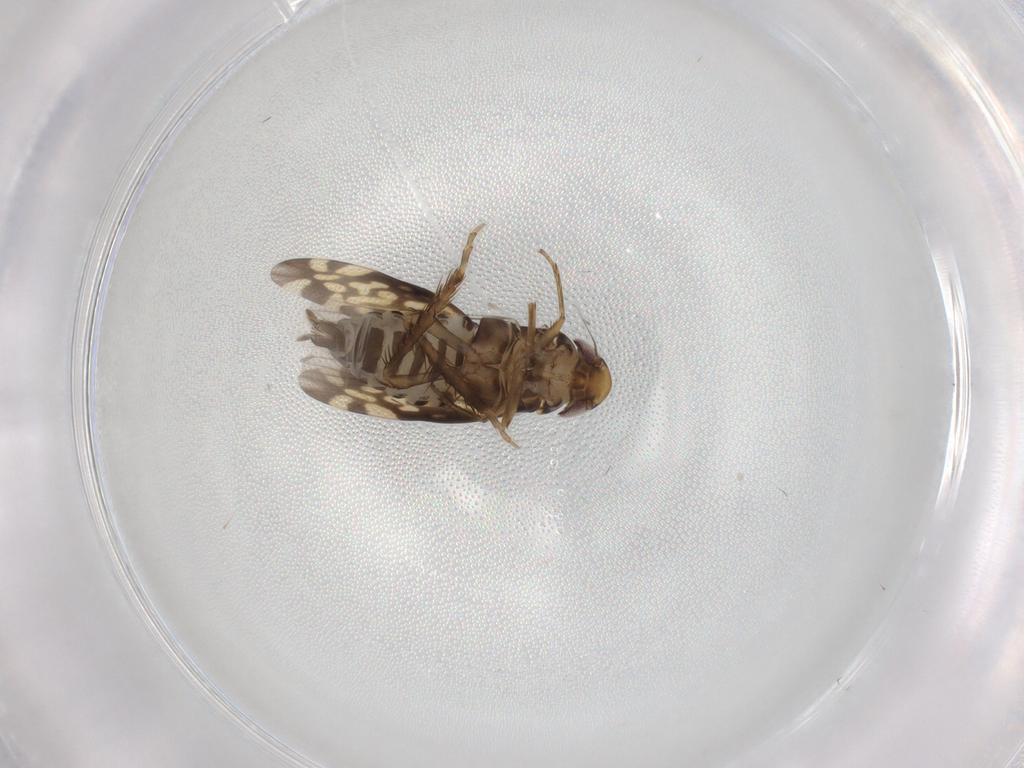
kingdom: Animalia
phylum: Arthropoda
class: Insecta
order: Hemiptera
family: Cicadellidae
